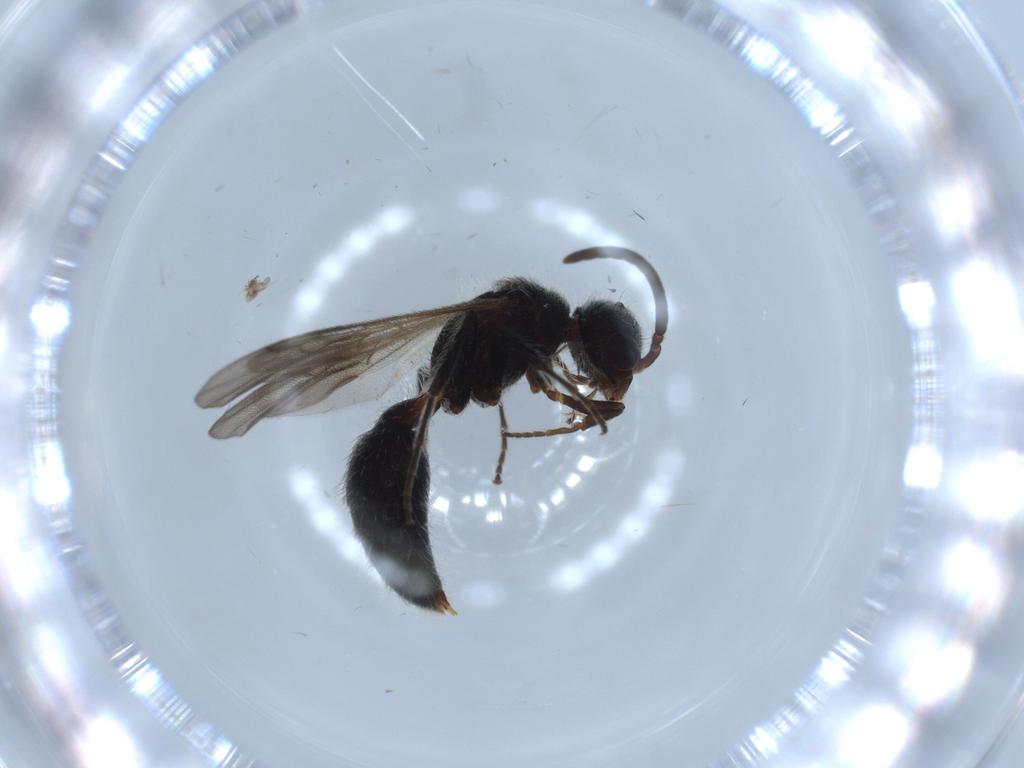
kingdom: Animalia
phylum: Arthropoda
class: Insecta
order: Hymenoptera
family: Mutillidae
